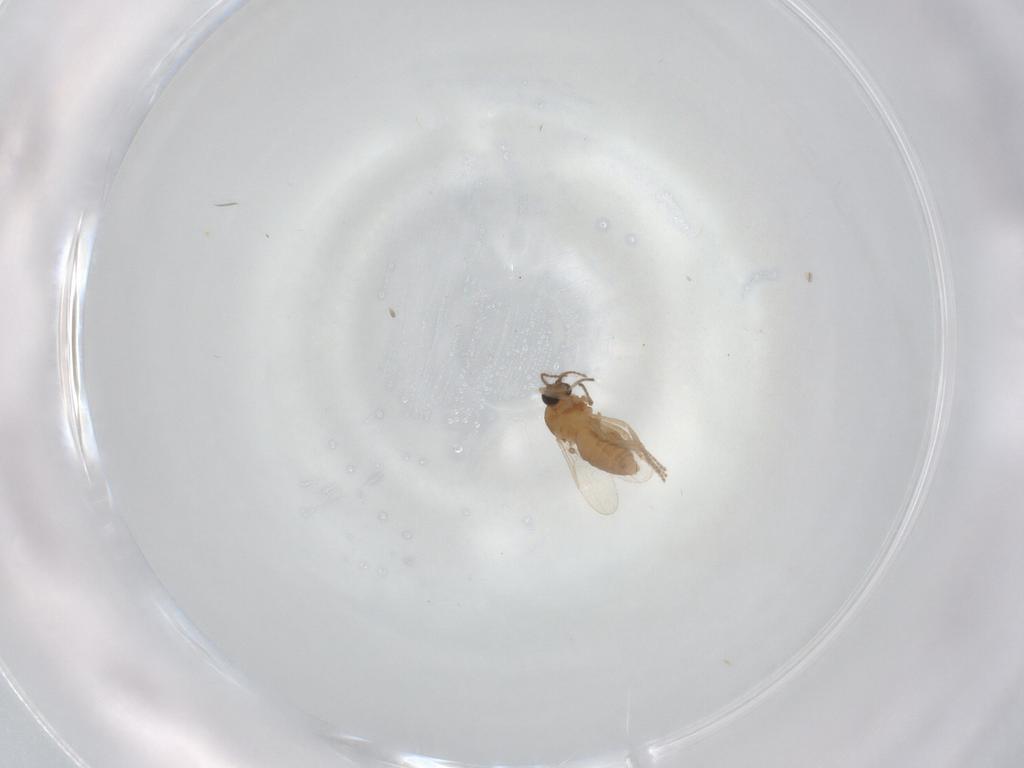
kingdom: Animalia
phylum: Arthropoda
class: Insecta
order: Diptera
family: Ceratopogonidae
